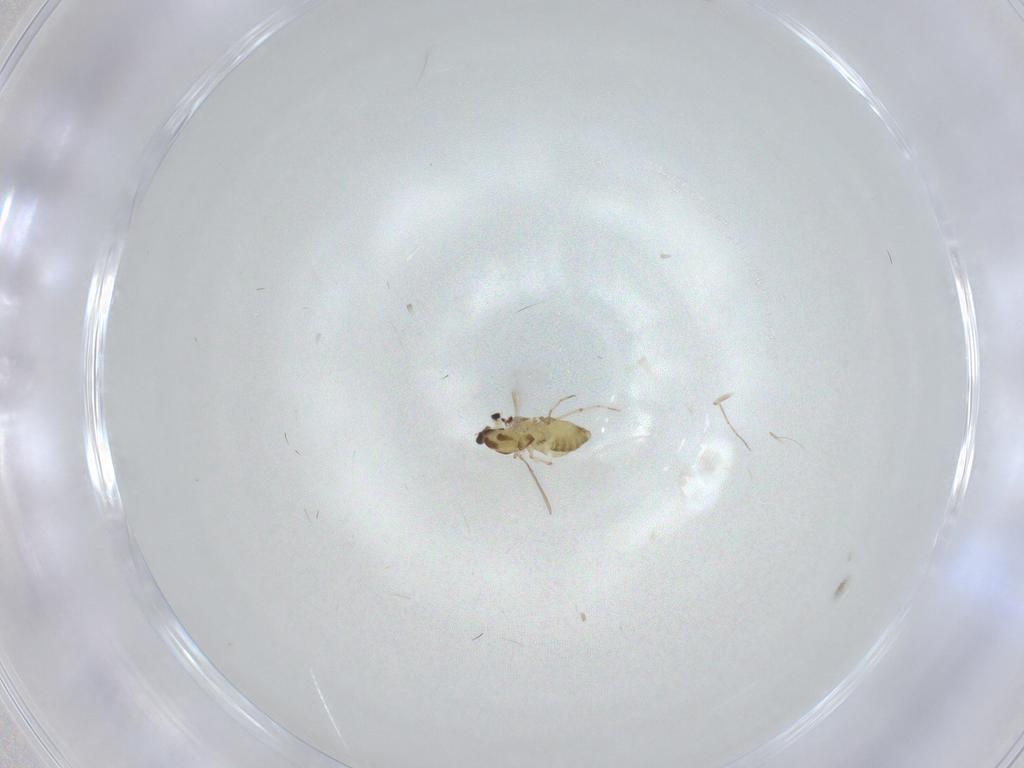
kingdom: Animalia
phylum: Arthropoda
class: Insecta
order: Diptera
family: Chironomidae
